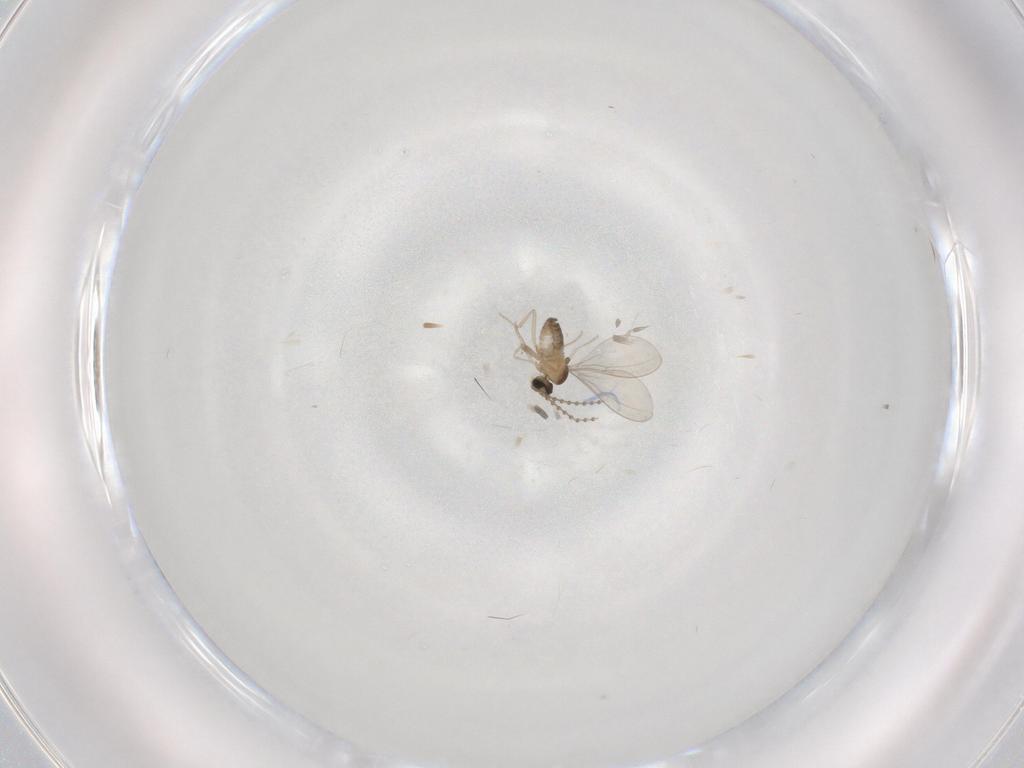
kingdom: Animalia
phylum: Arthropoda
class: Insecta
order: Diptera
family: Cecidomyiidae
